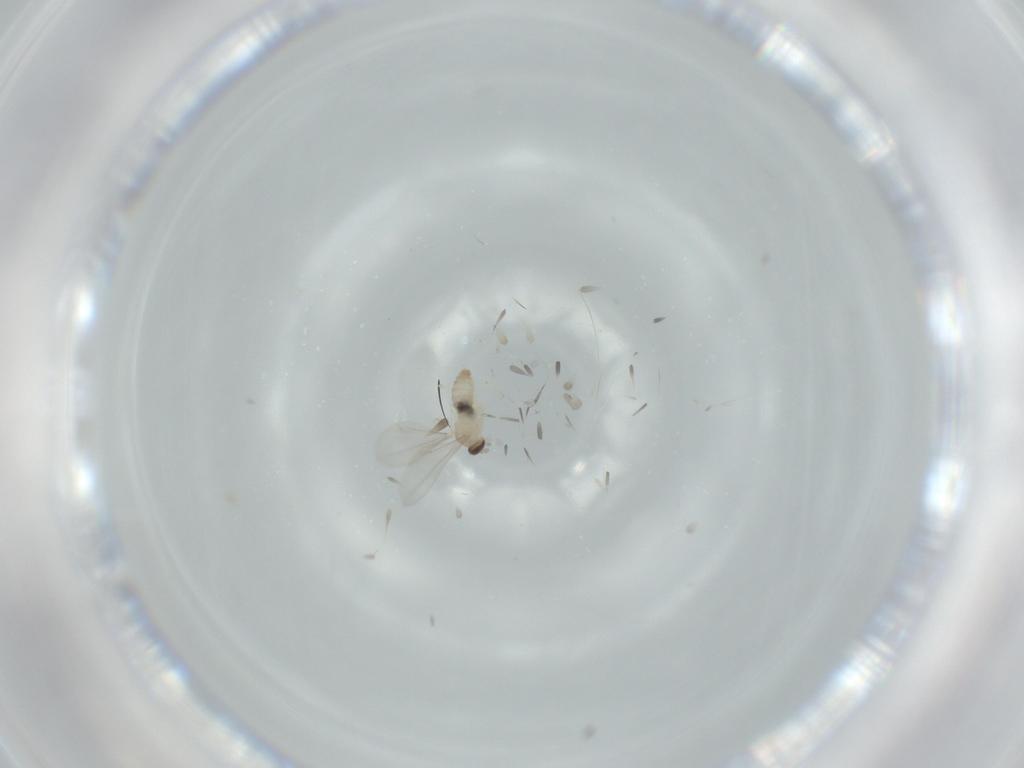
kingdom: Animalia
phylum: Arthropoda
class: Insecta
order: Diptera
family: Cecidomyiidae
